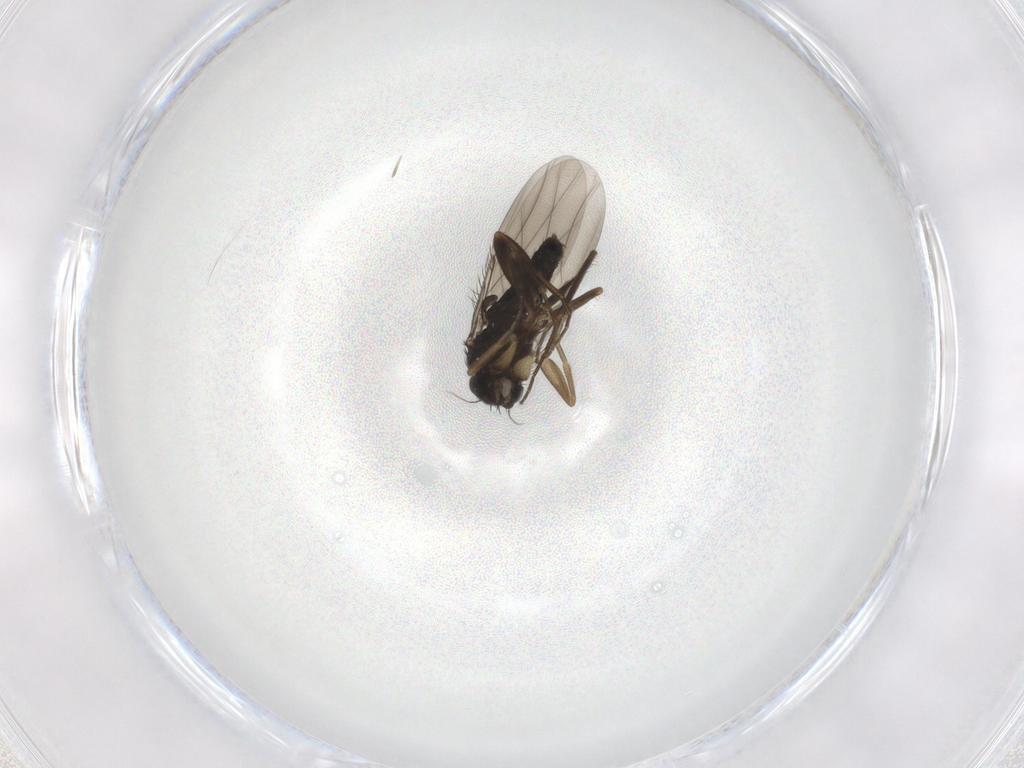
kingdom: Animalia
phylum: Arthropoda
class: Insecta
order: Diptera
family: Phoridae
